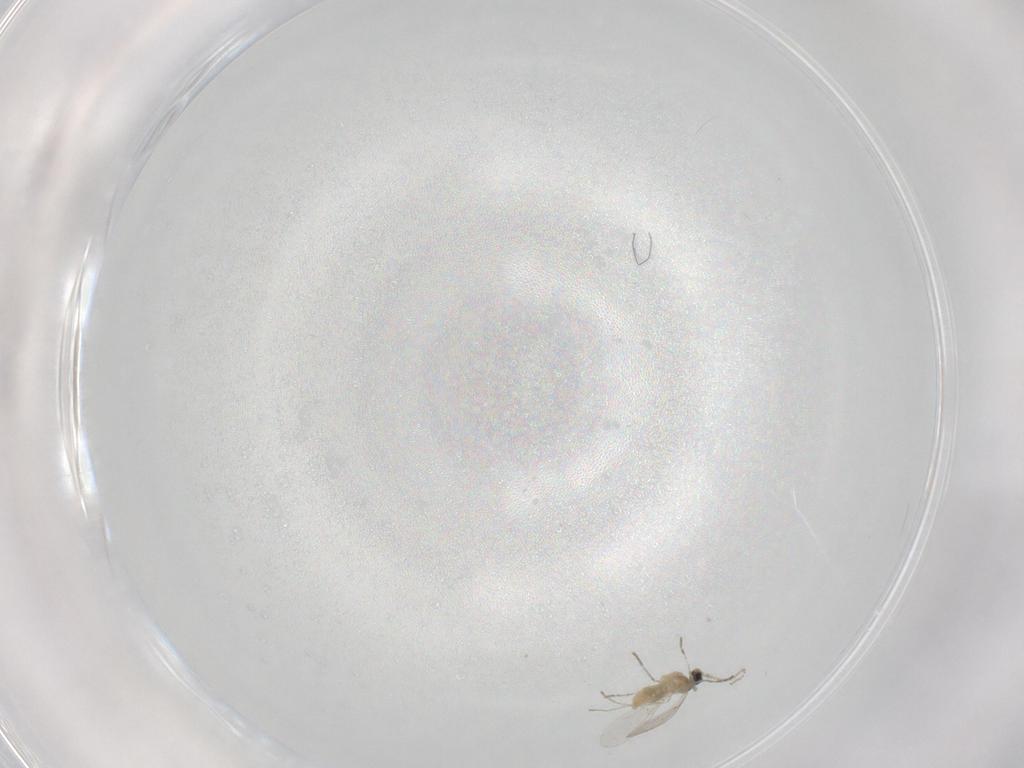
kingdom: Animalia
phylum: Arthropoda
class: Insecta
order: Diptera
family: Cecidomyiidae
